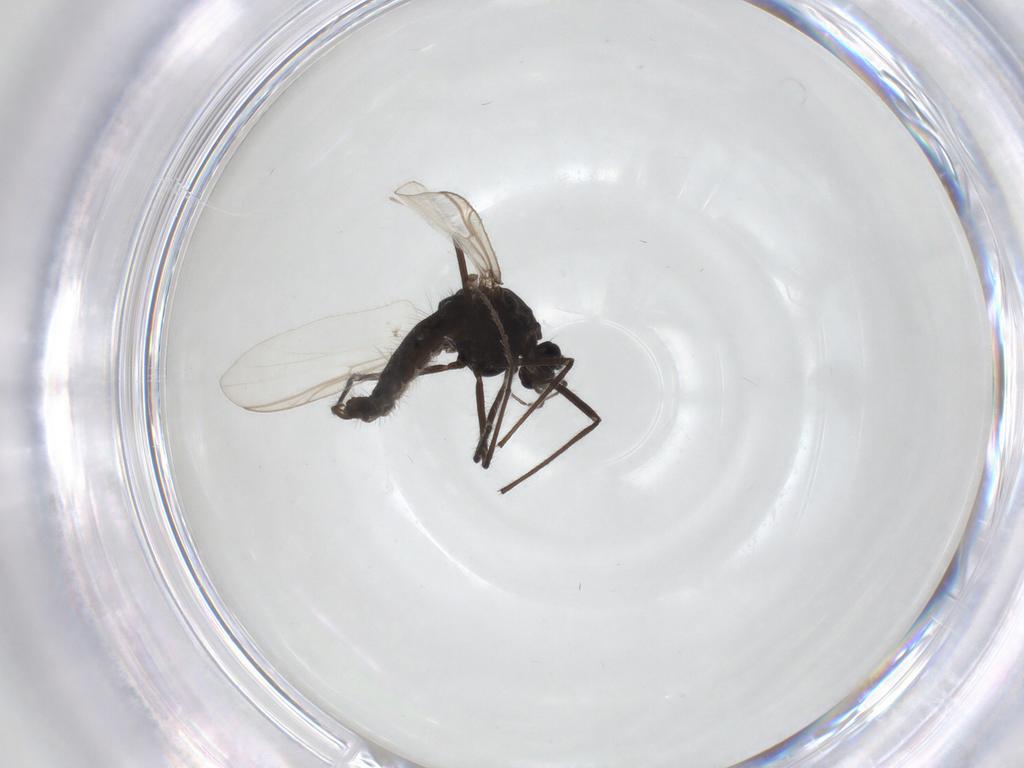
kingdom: Animalia
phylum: Arthropoda
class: Insecta
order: Diptera
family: Chironomidae
